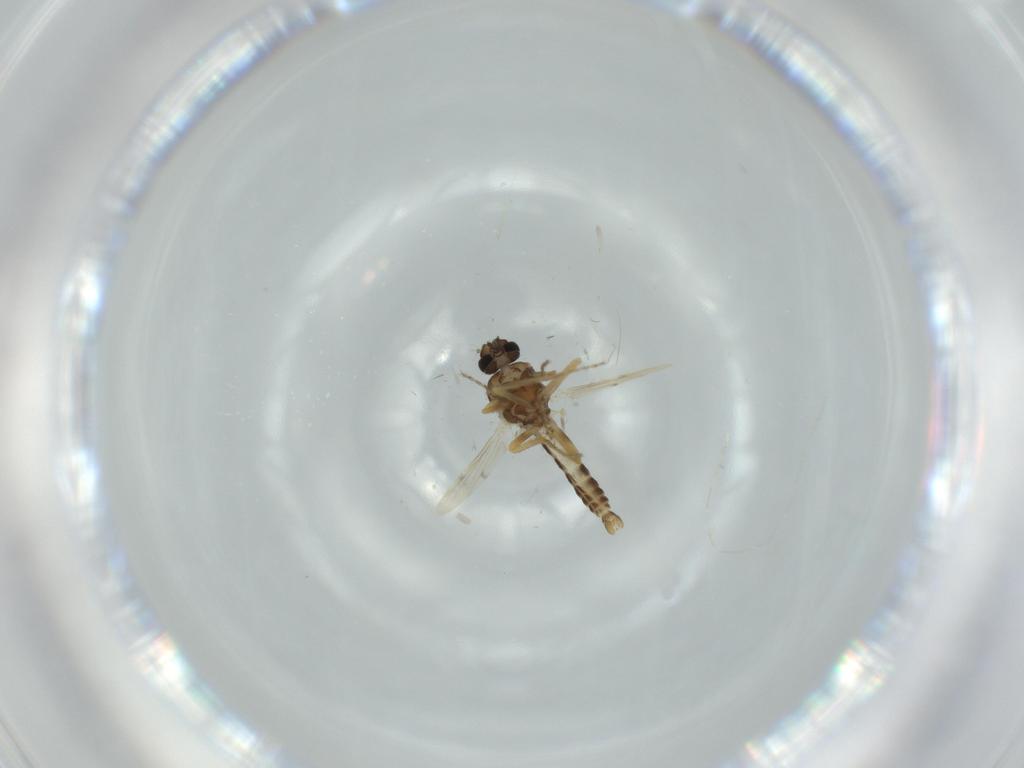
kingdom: Animalia
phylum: Arthropoda
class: Insecta
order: Diptera
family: Ceratopogonidae
